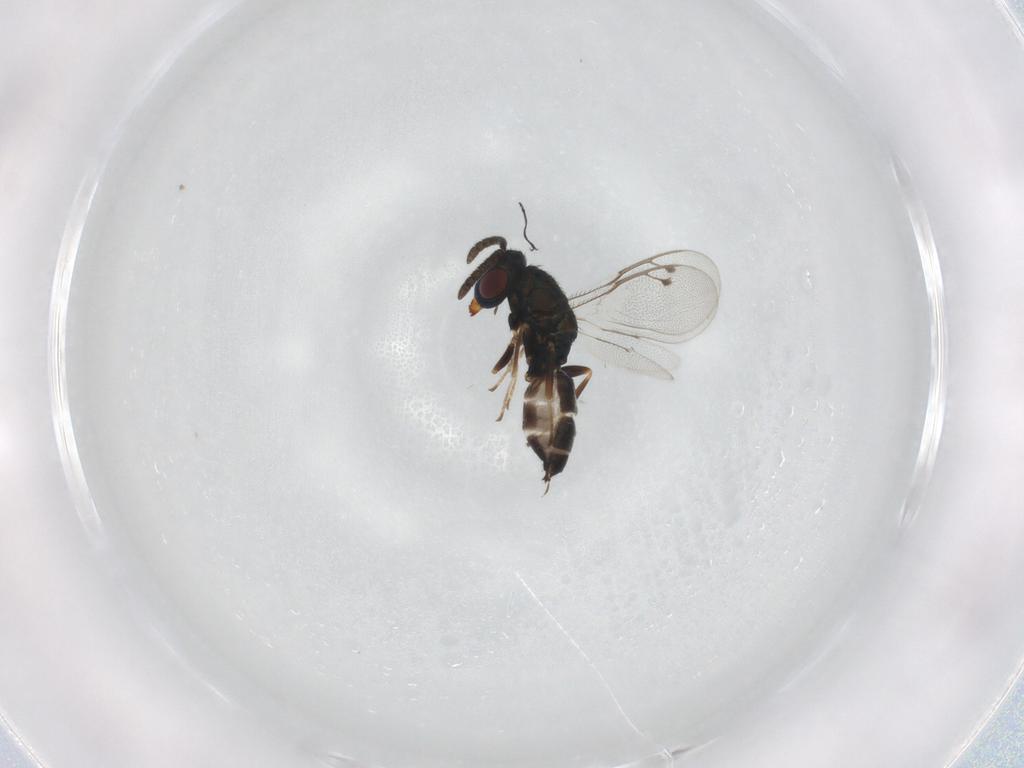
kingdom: Animalia
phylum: Arthropoda
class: Insecta
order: Hymenoptera
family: Pteromalidae
